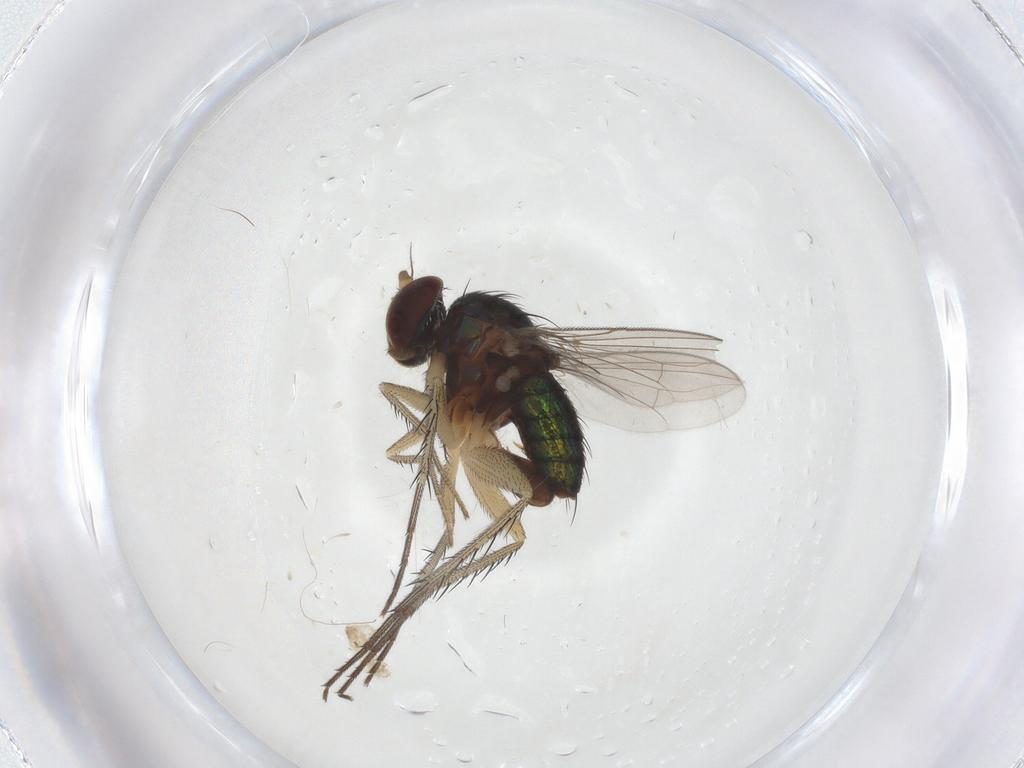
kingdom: Animalia
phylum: Arthropoda
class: Insecta
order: Diptera
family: Dolichopodidae
